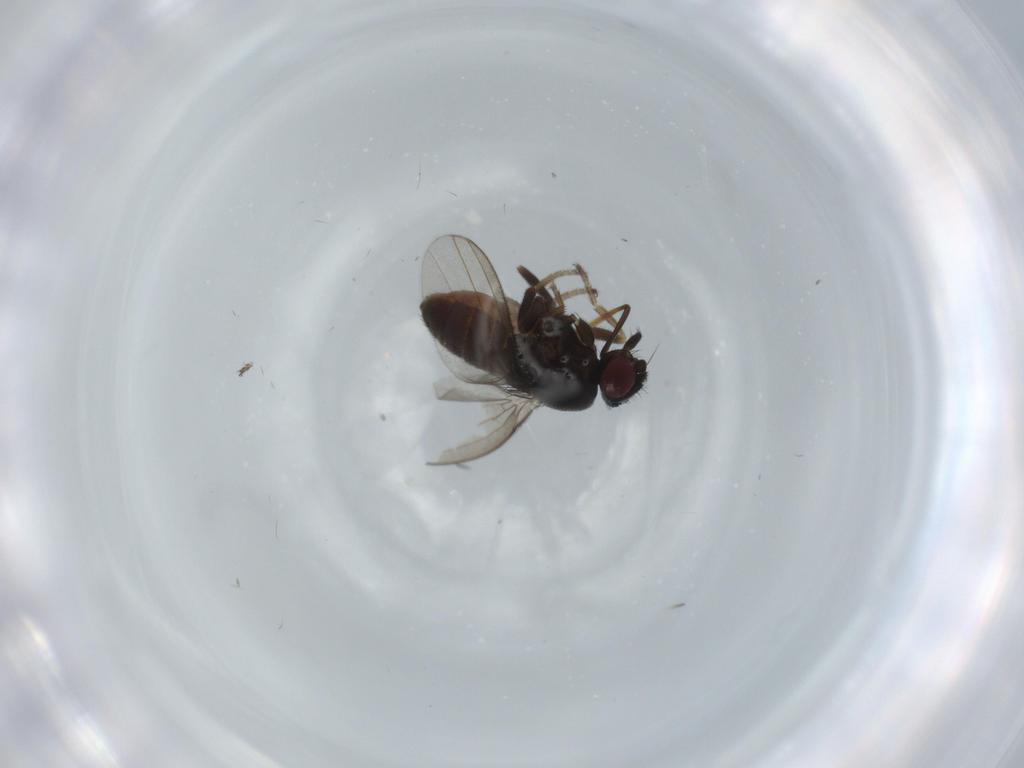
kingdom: Animalia
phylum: Arthropoda
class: Insecta
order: Diptera
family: Milichiidae
